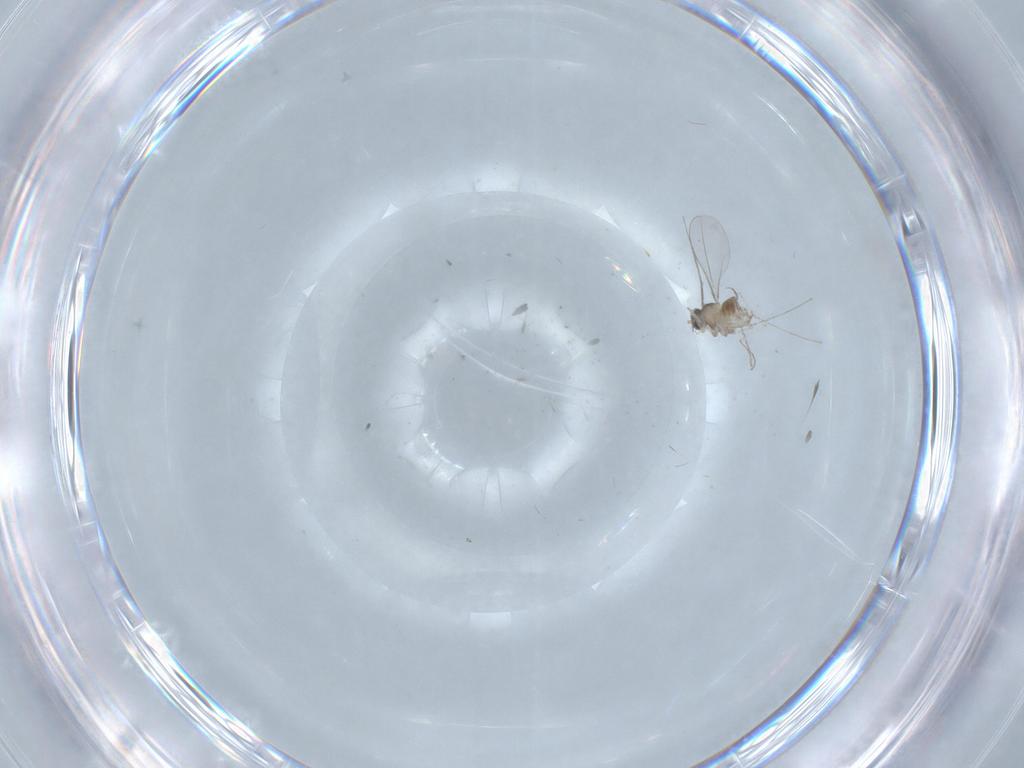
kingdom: Animalia
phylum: Arthropoda
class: Insecta
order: Diptera
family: Cecidomyiidae
